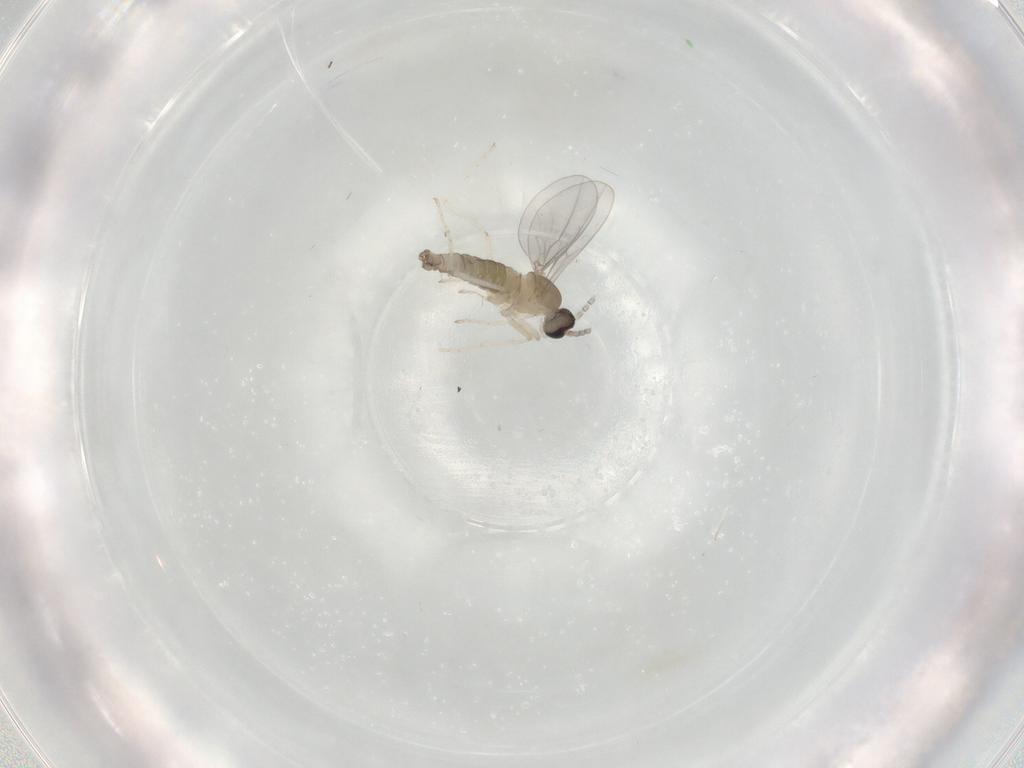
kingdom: Animalia
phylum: Arthropoda
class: Insecta
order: Diptera
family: Cecidomyiidae
